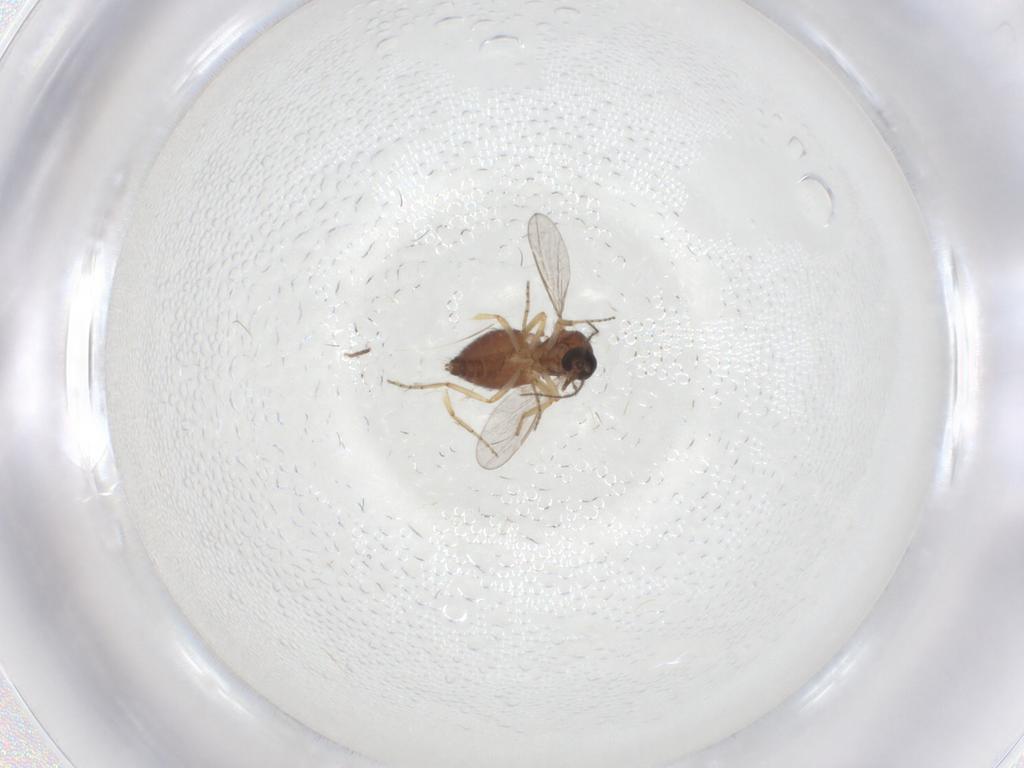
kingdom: Animalia
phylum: Arthropoda
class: Insecta
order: Diptera
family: Ceratopogonidae
